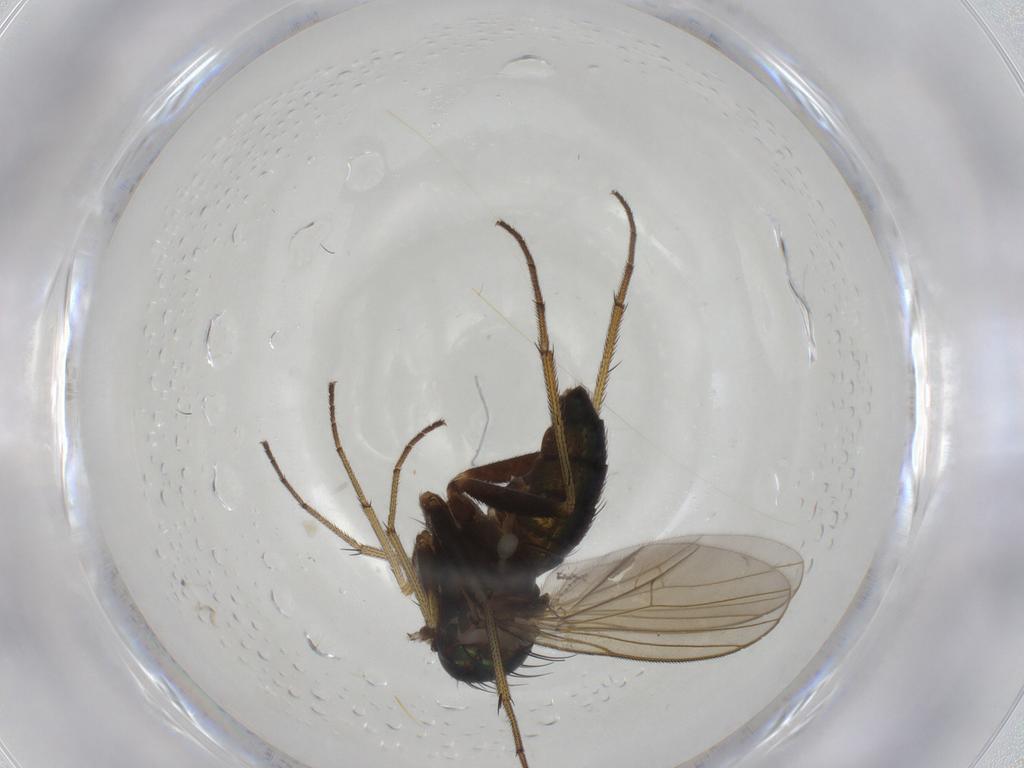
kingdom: Animalia
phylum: Arthropoda
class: Insecta
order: Diptera
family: Dolichopodidae
